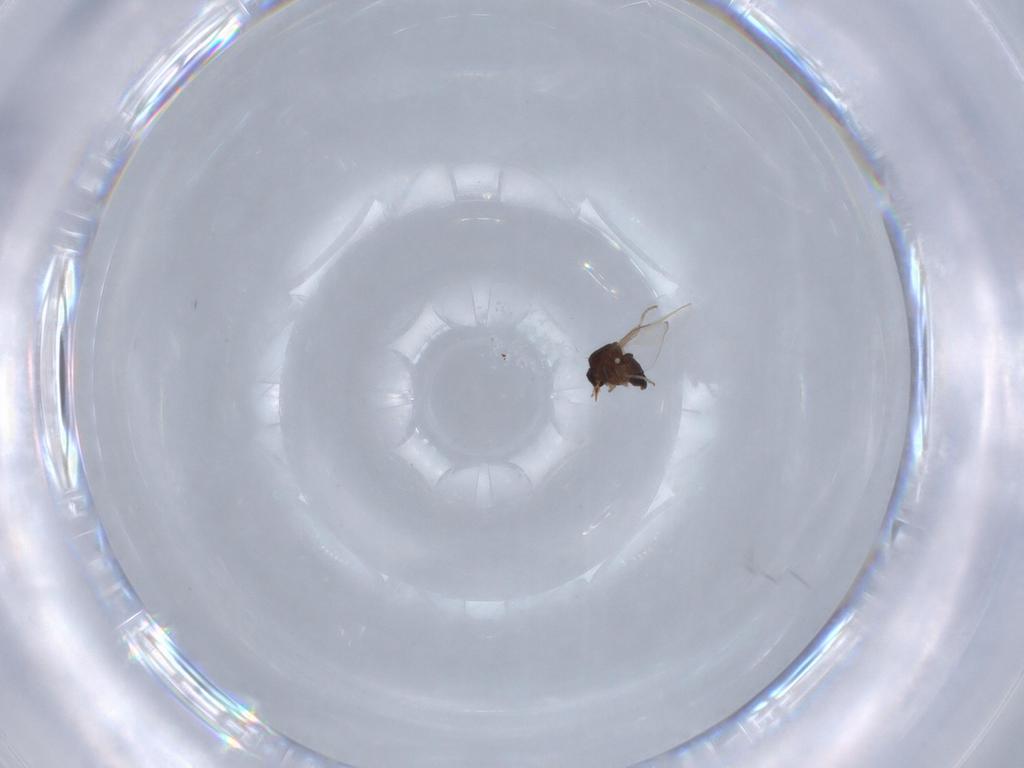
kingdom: Animalia
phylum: Arthropoda
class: Insecta
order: Diptera
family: Ceratopogonidae
